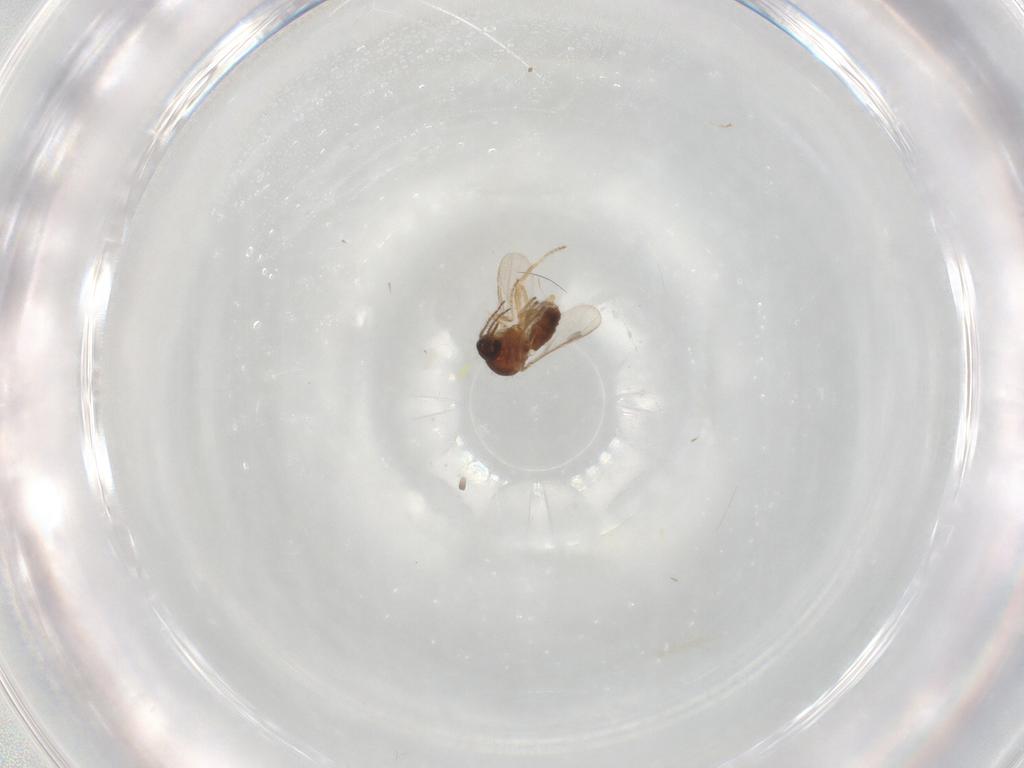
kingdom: Animalia
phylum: Arthropoda
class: Insecta
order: Diptera
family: Ceratopogonidae
